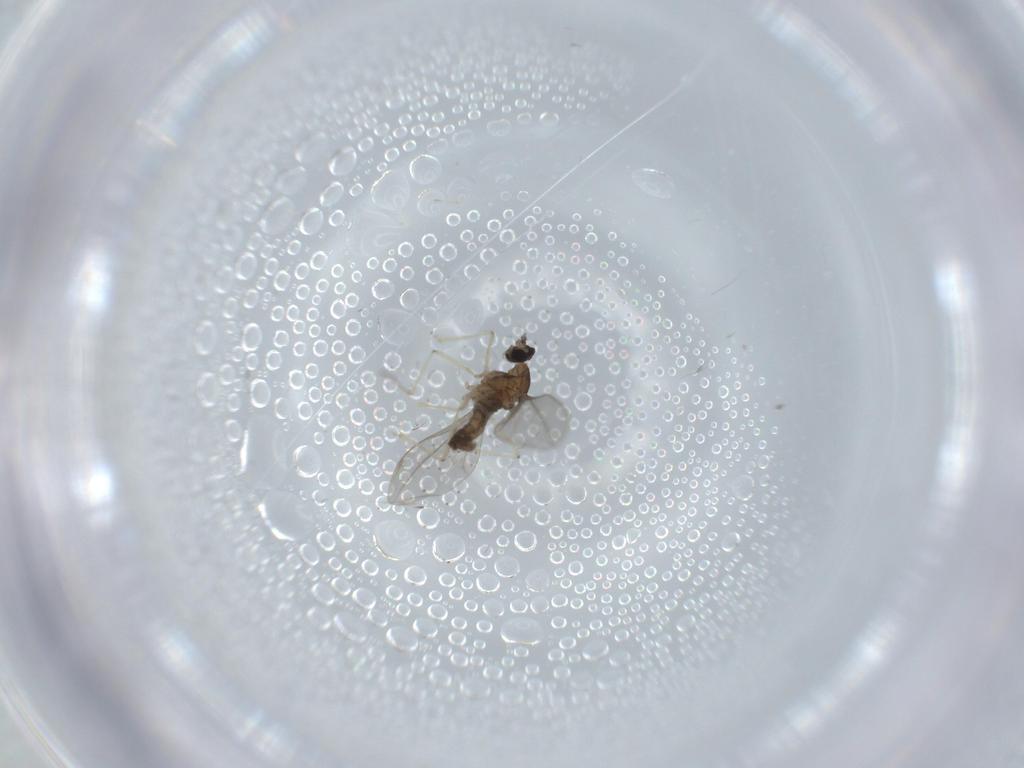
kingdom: Animalia
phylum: Arthropoda
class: Insecta
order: Diptera
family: Cecidomyiidae
